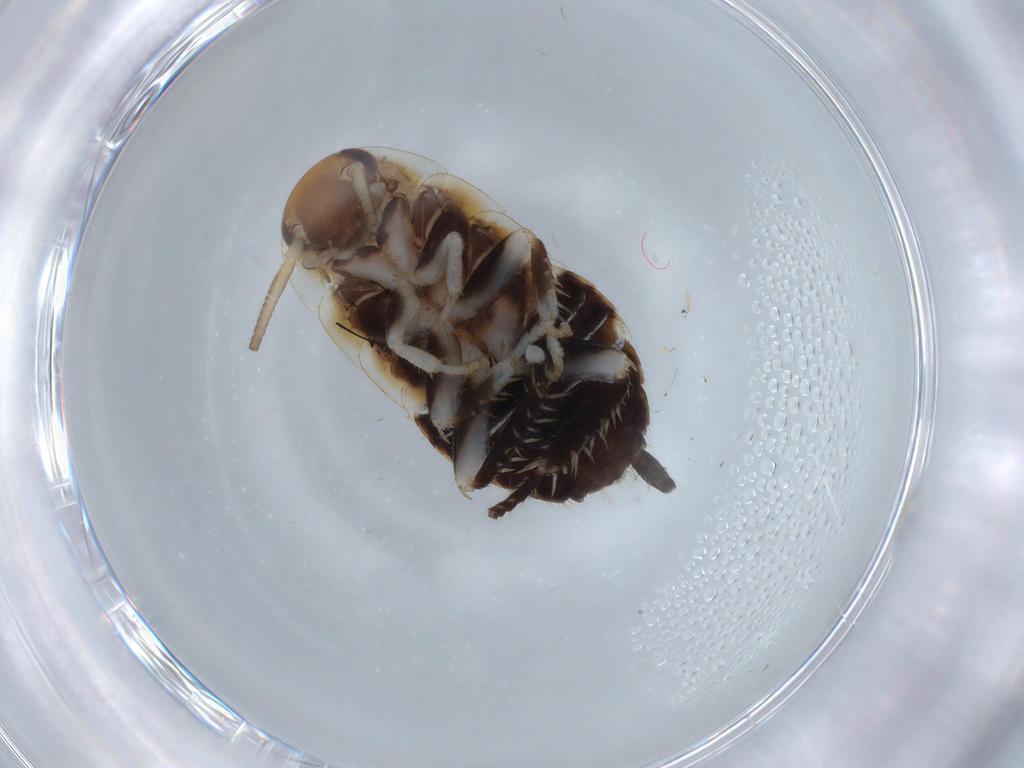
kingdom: Animalia
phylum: Arthropoda
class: Insecta
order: Blattodea
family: Ectobiidae
